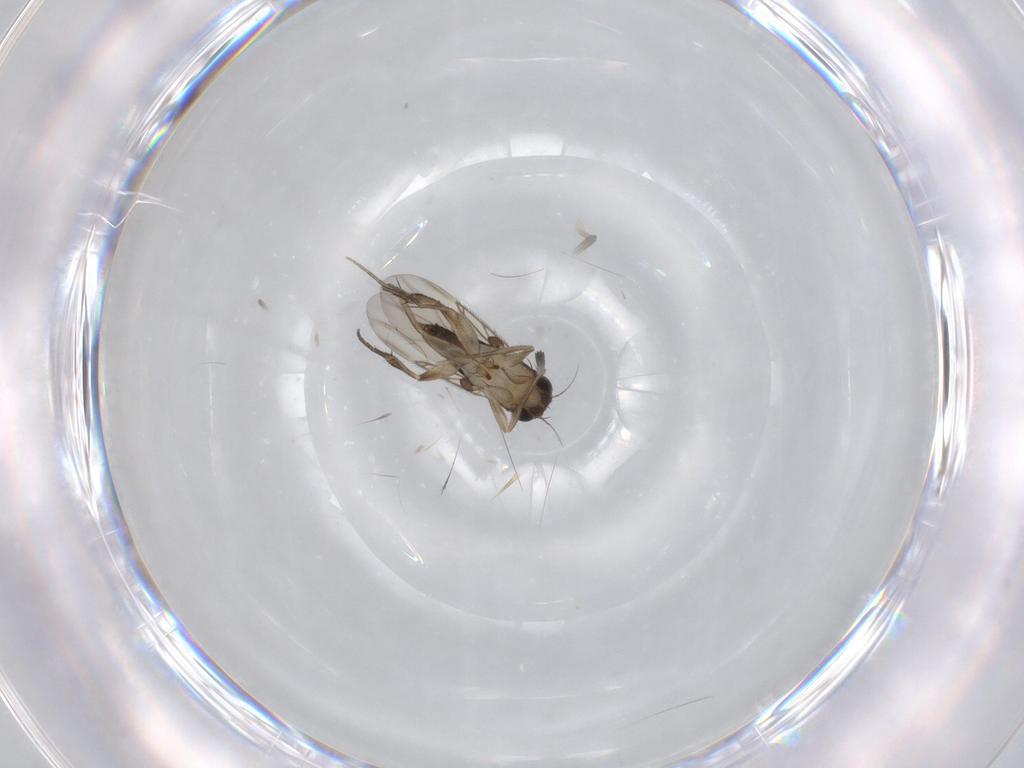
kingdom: Animalia
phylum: Arthropoda
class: Insecta
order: Diptera
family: Phoridae
